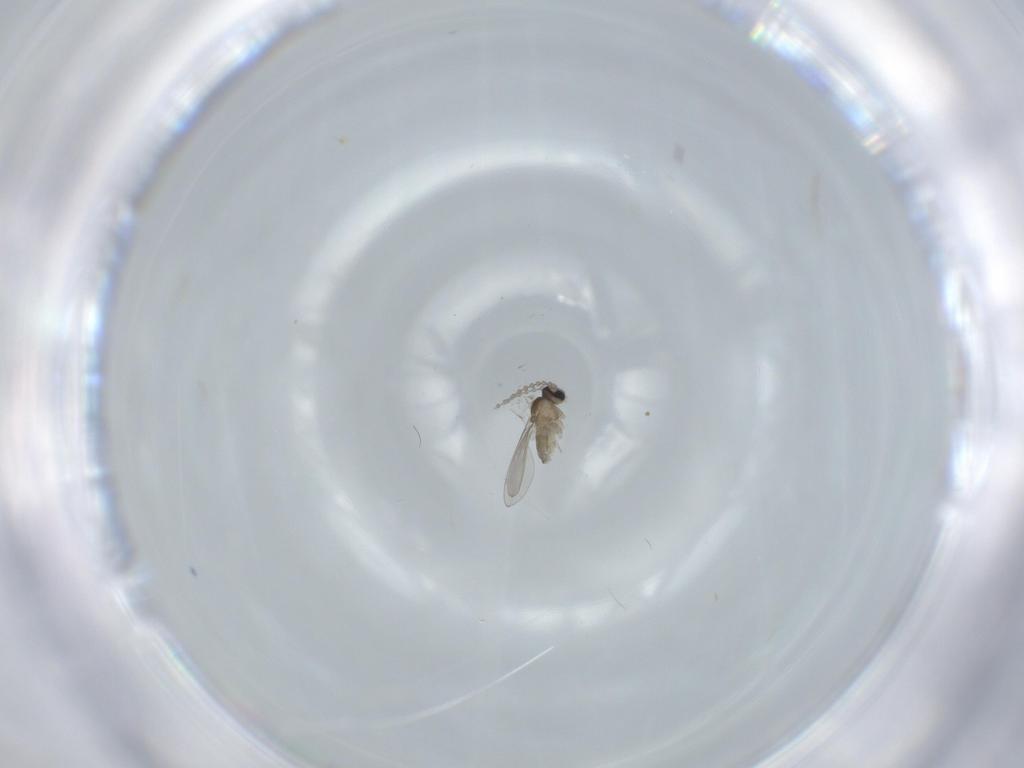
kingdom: Animalia
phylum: Arthropoda
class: Insecta
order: Diptera
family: Cecidomyiidae
